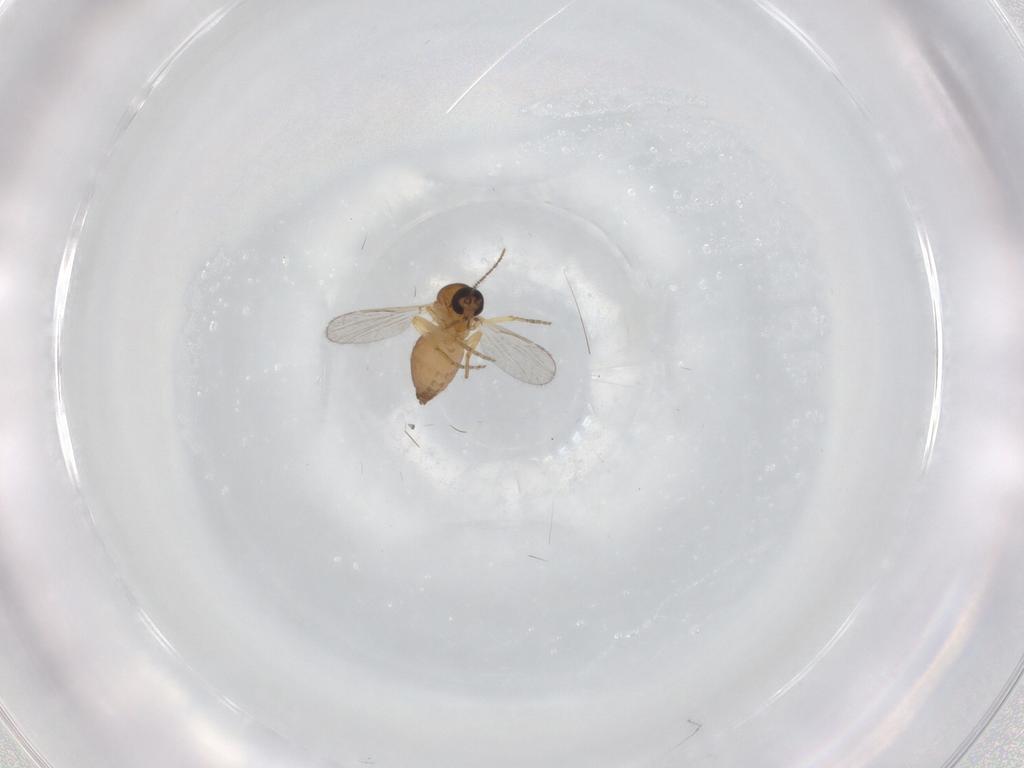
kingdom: Animalia
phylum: Arthropoda
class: Insecta
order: Diptera
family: Ceratopogonidae
